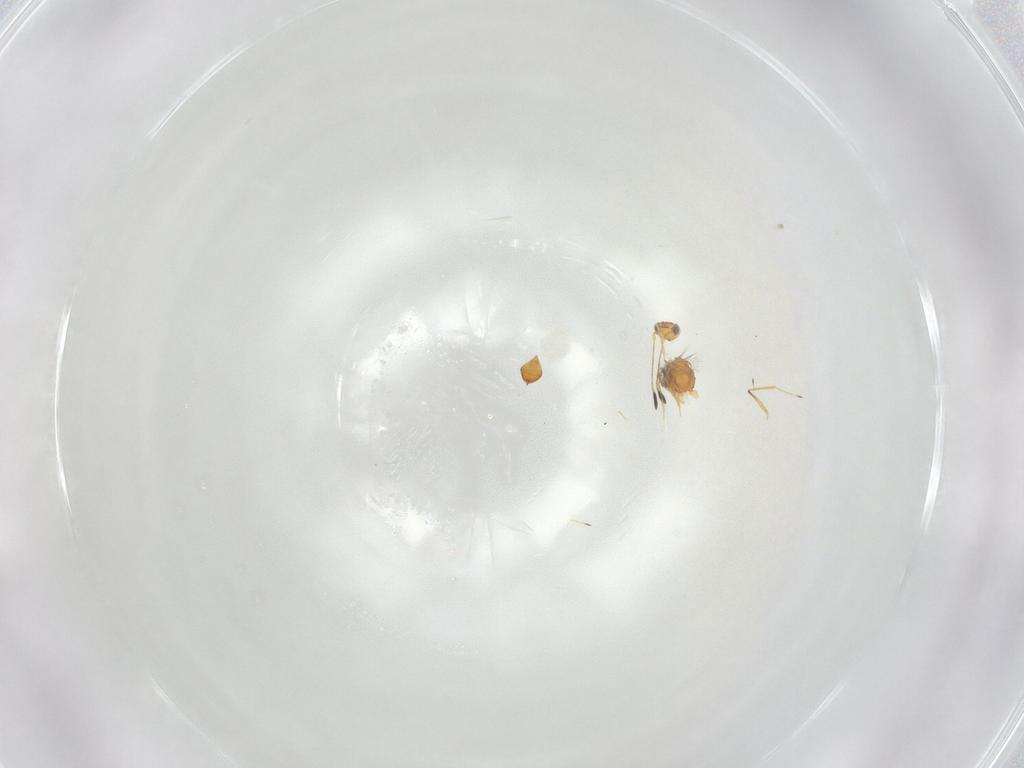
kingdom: Animalia
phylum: Arthropoda
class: Insecta
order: Hymenoptera
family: Mymaridae
